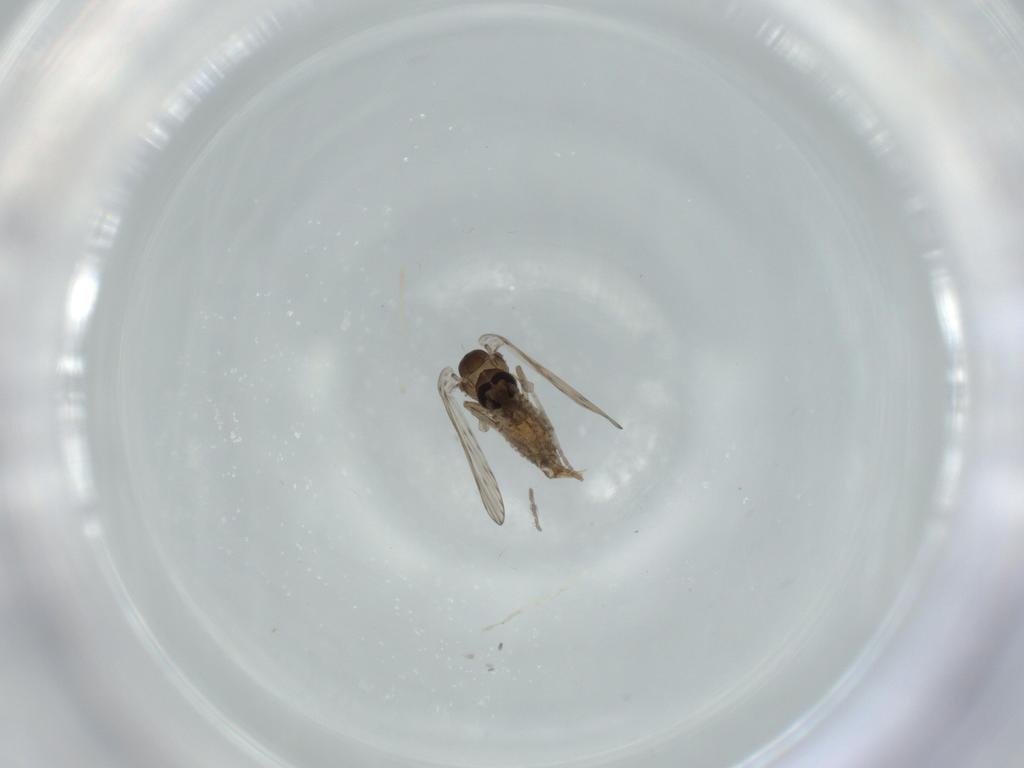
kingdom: Animalia
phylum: Arthropoda
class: Insecta
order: Diptera
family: Psychodidae
